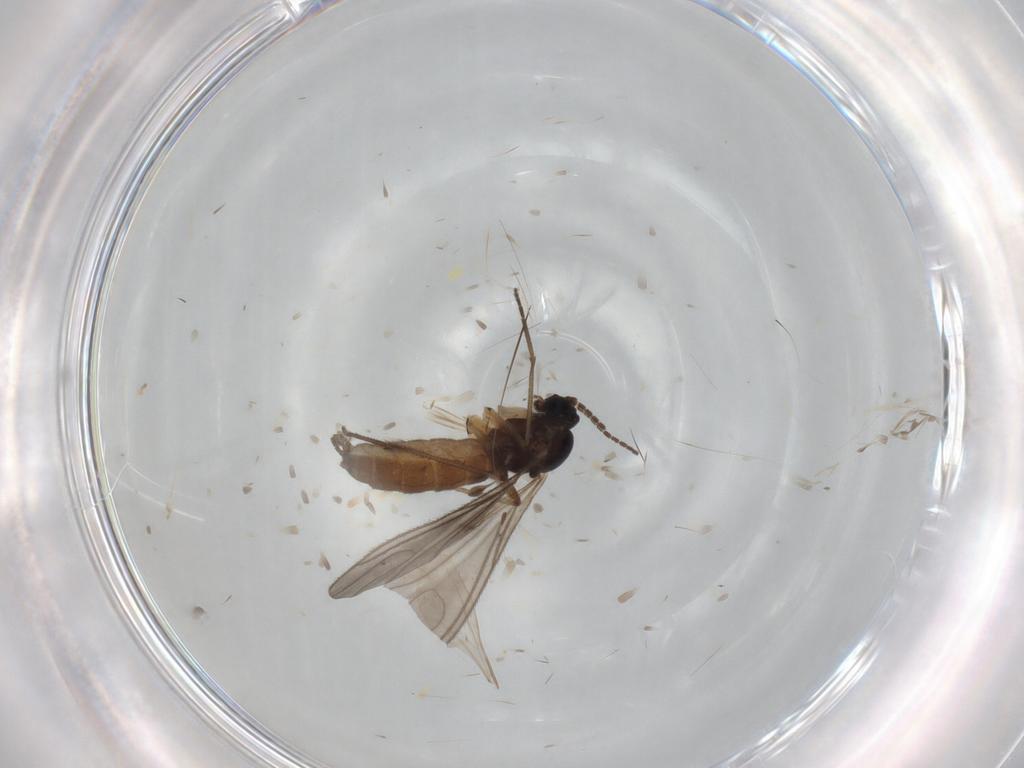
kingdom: Animalia
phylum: Arthropoda
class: Insecta
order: Diptera
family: Sciaridae
